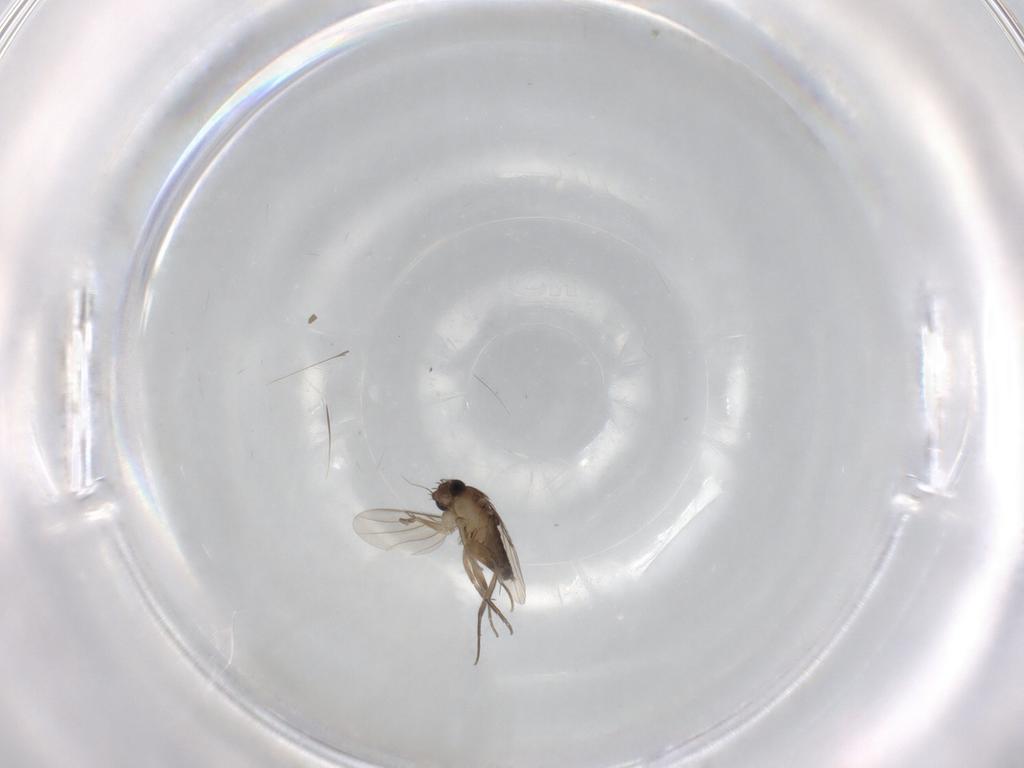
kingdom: Animalia
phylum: Arthropoda
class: Insecta
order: Diptera
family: Cecidomyiidae
